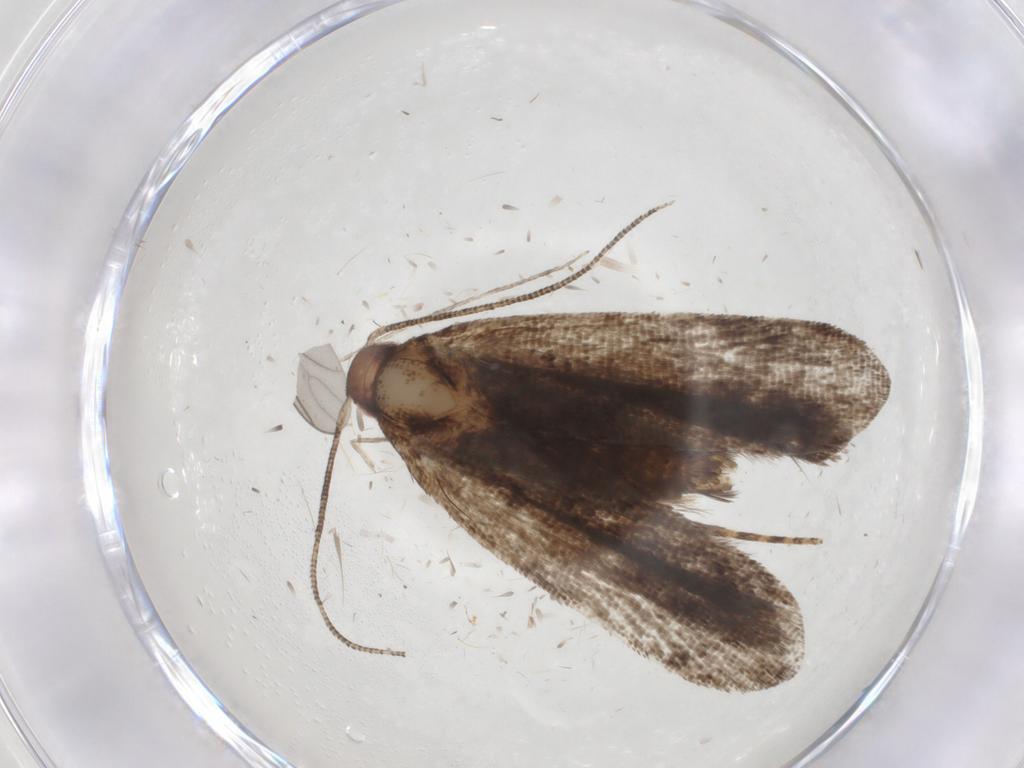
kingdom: Animalia
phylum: Arthropoda
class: Insecta
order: Lepidoptera
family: Gelechiidae
